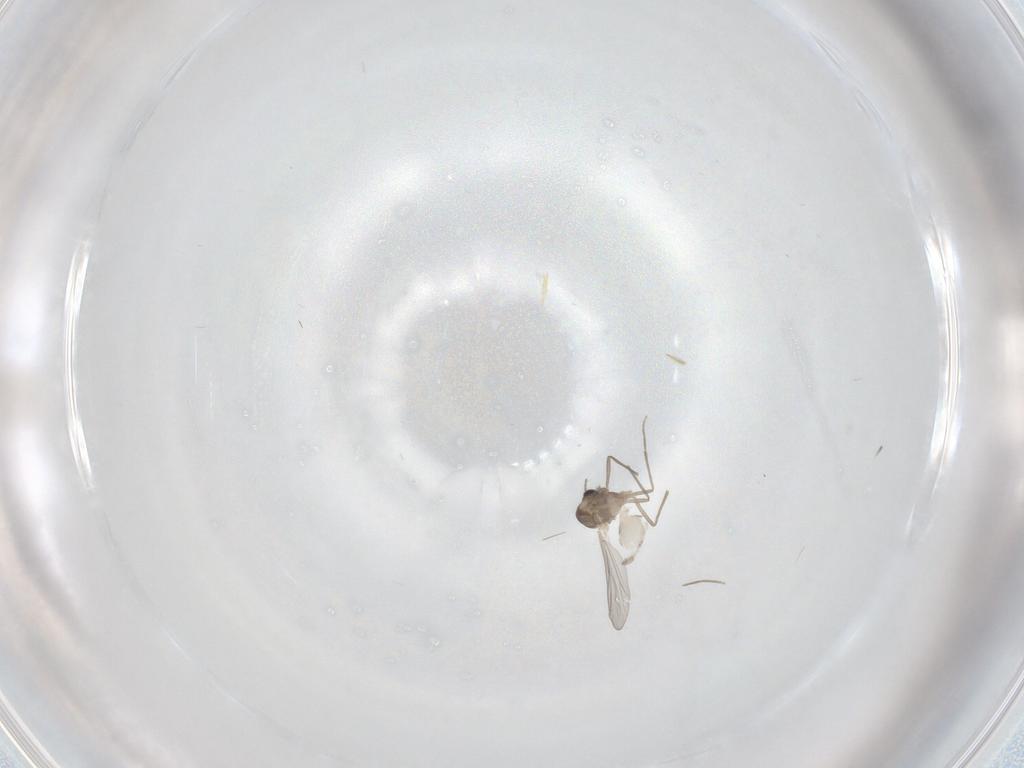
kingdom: Animalia
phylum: Arthropoda
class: Insecta
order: Diptera
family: Chironomidae
